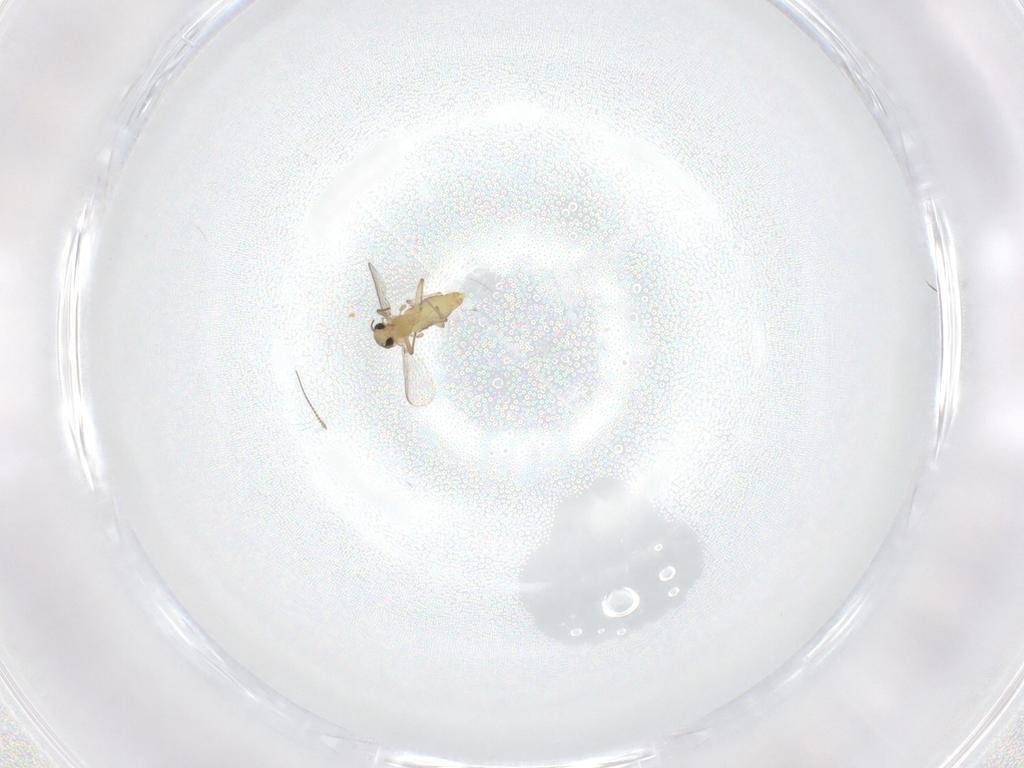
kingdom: Animalia
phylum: Arthropoda
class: Insecta
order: Diptera
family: Chironomidae
